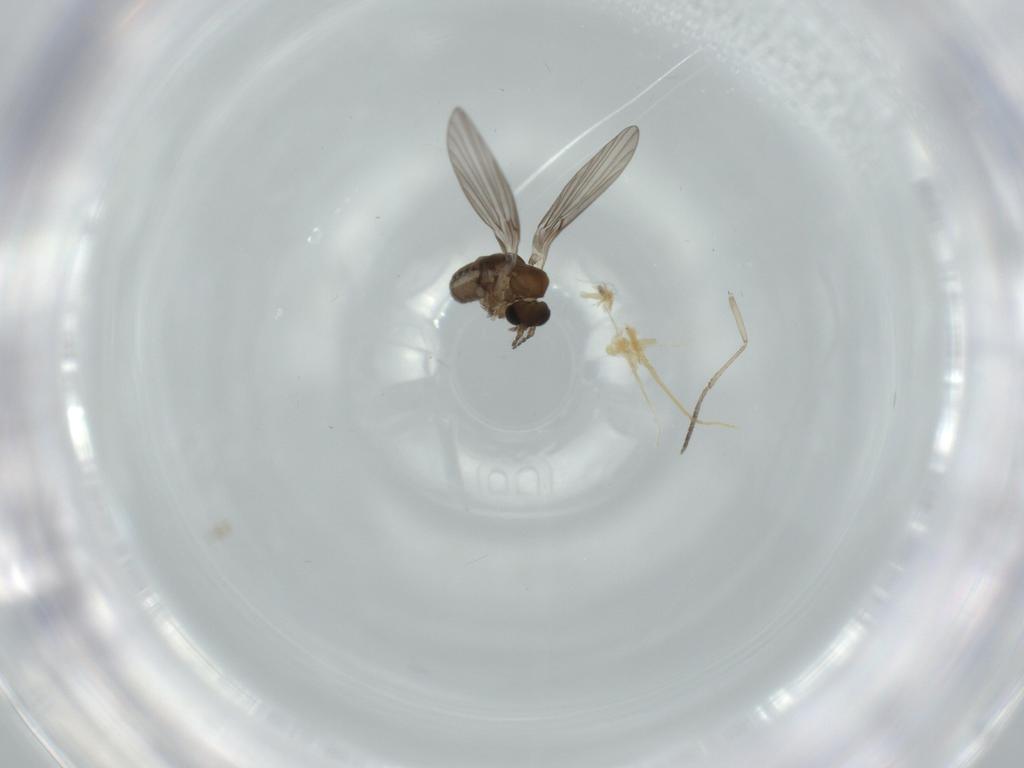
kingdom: Animalia
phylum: Arthropoda
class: Insecta
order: Diptera
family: Psychodidae
